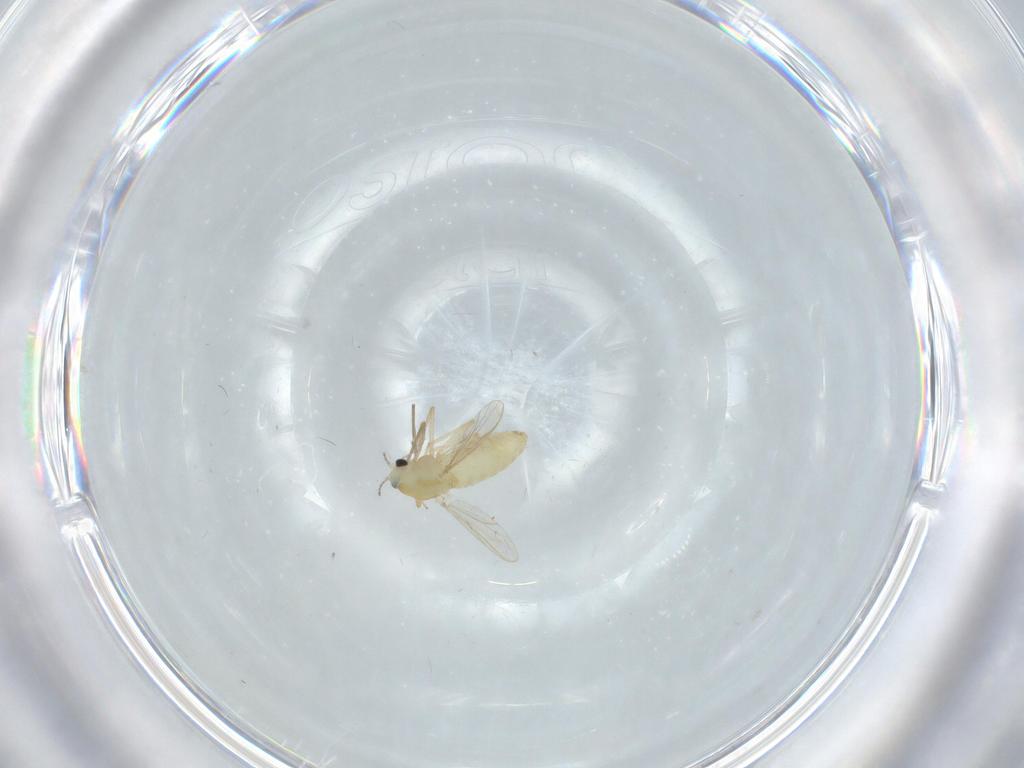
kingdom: Animalia
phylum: Arthropoda
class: Insecta
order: Diptera
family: Chironomidae
